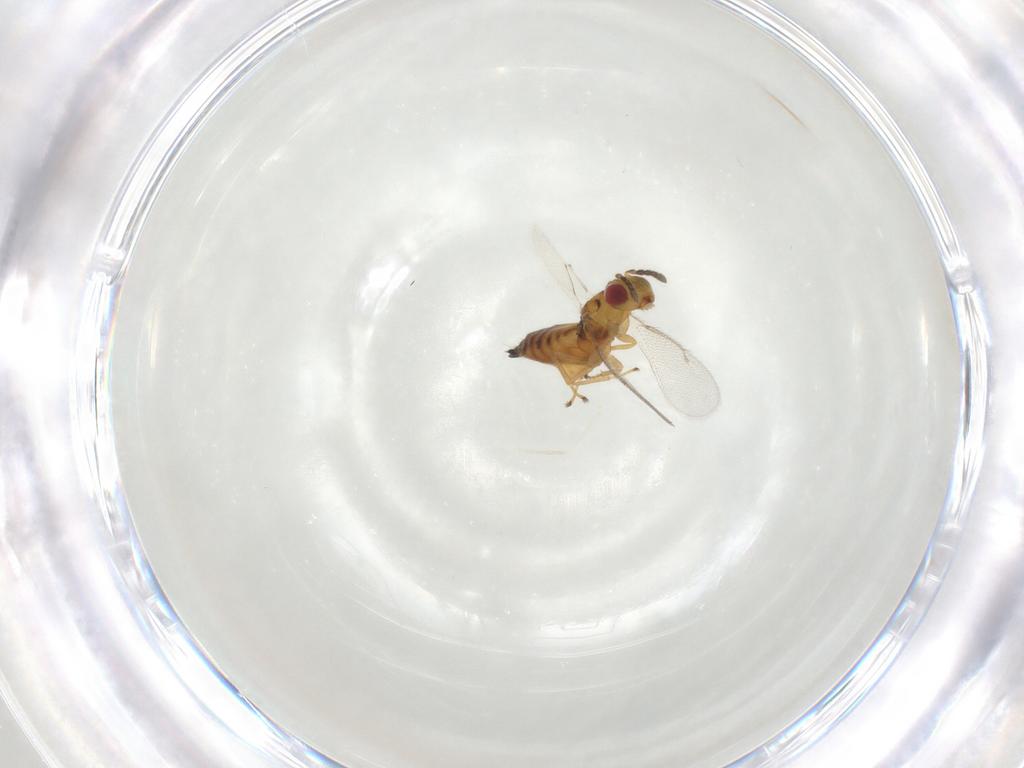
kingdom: Animalia
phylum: Arthropoda
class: Insecta
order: Hymenoptera
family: Eulophidae
